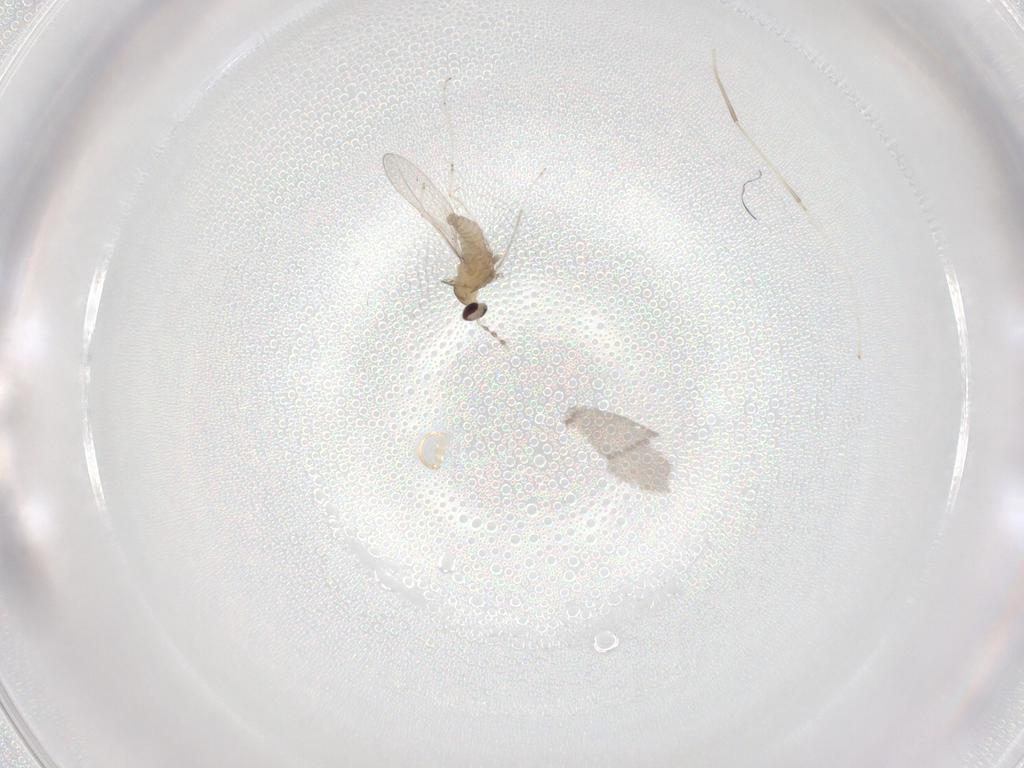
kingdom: Animalia
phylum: Arthropoda
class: Insecta
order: Diptera
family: Cecidomyiidae
